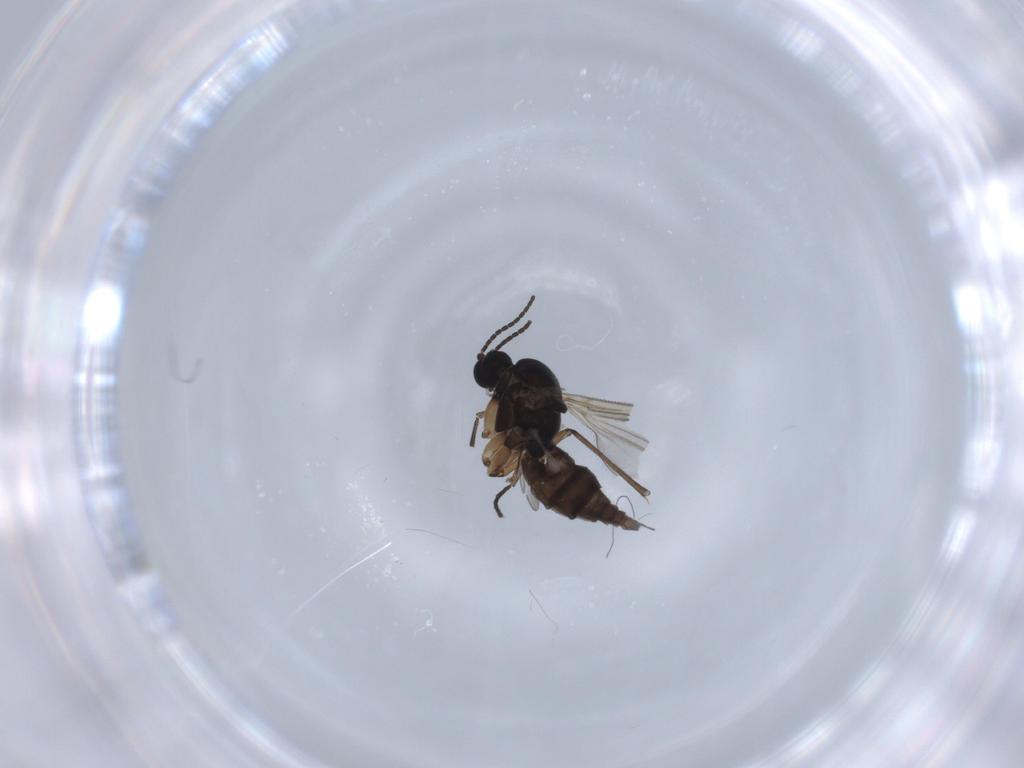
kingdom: Animalia
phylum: Arthropoda
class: Insecta
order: Diptera
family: Sciaridae
